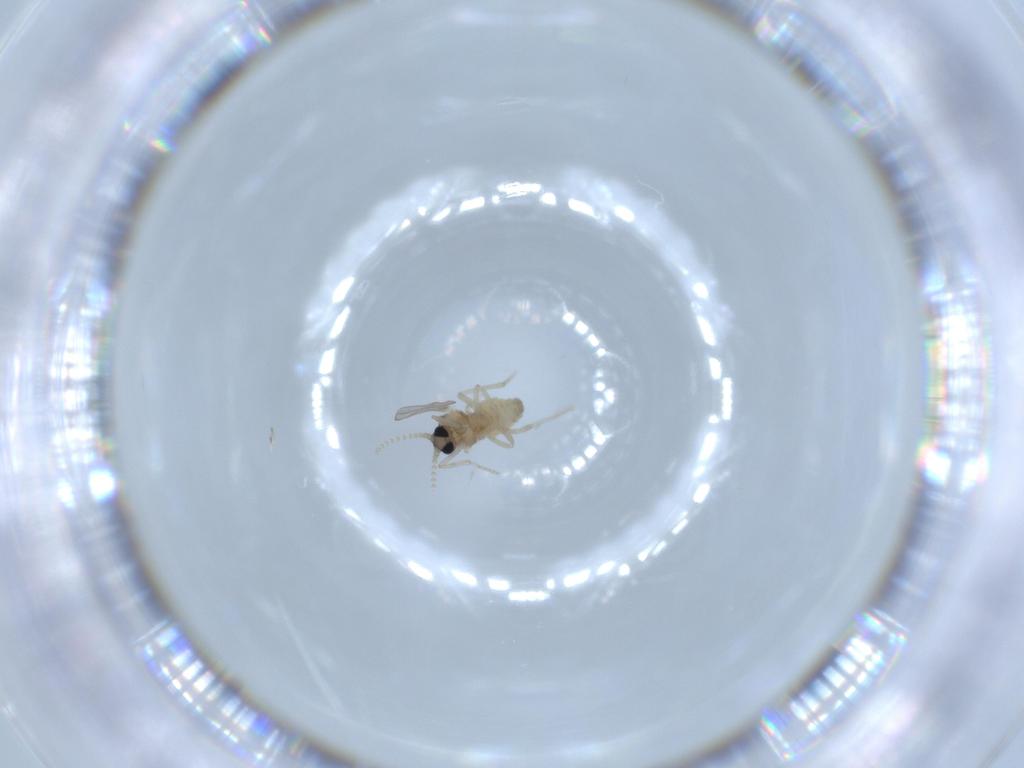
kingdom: Animalia
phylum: Arthropoda
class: Insecta
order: Diptera
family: Cecidomyiidae
